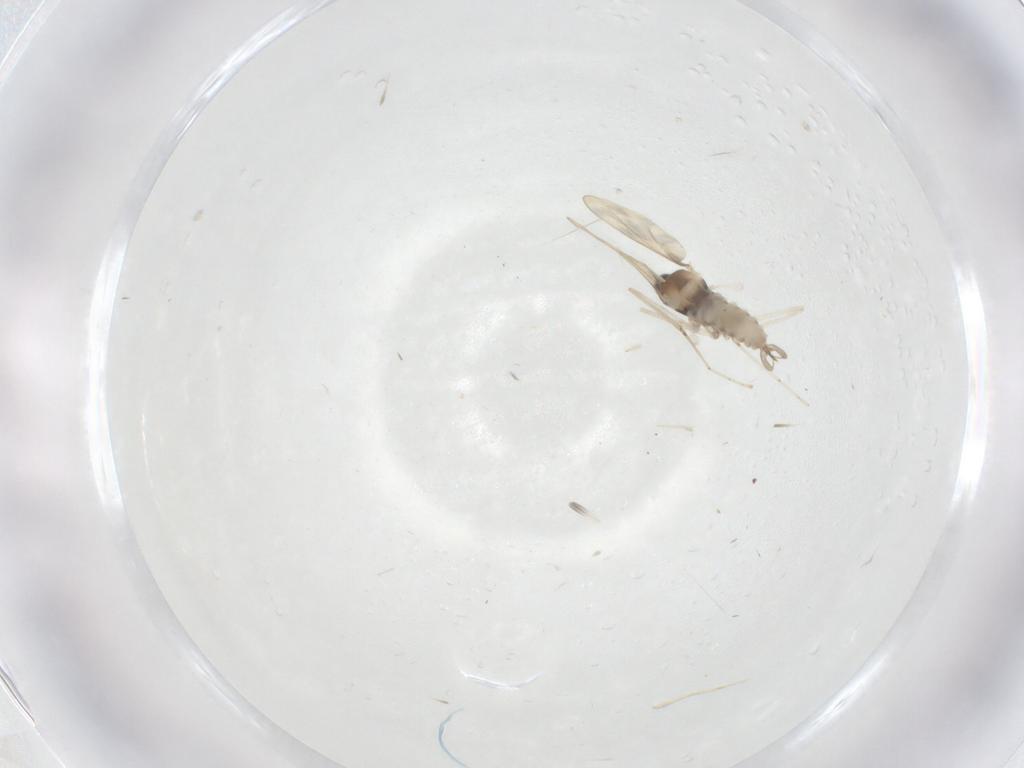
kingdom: Animalia
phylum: Arthropoda
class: Insecta
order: Diptera
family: Cecidomyiidae
